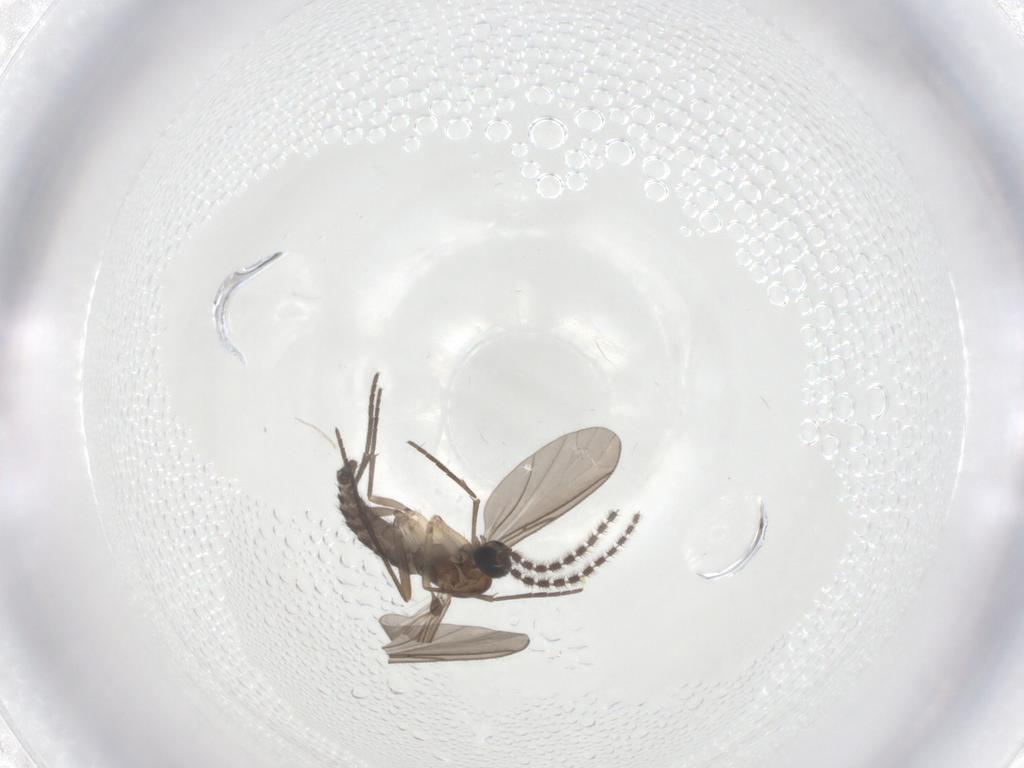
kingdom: Animalia
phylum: Arthropoda
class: Insecta
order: Diptera
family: Sciaridae
